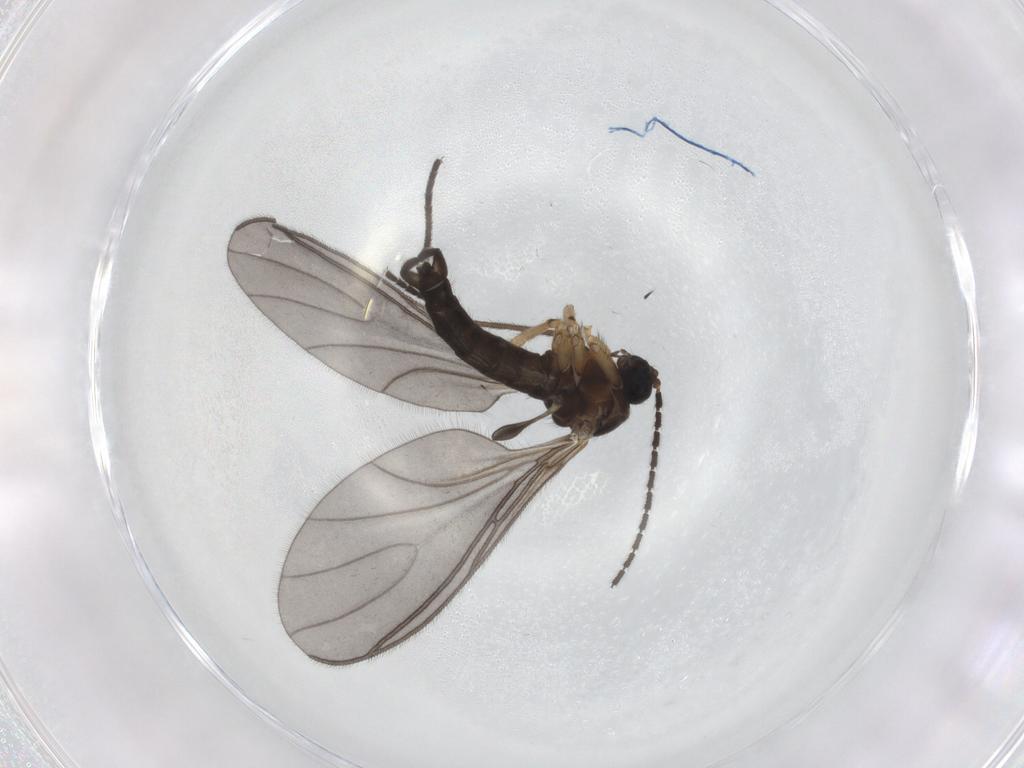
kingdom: Animalia
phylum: Arthropoda
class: Insecta
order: Diptera
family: Sciaridae
